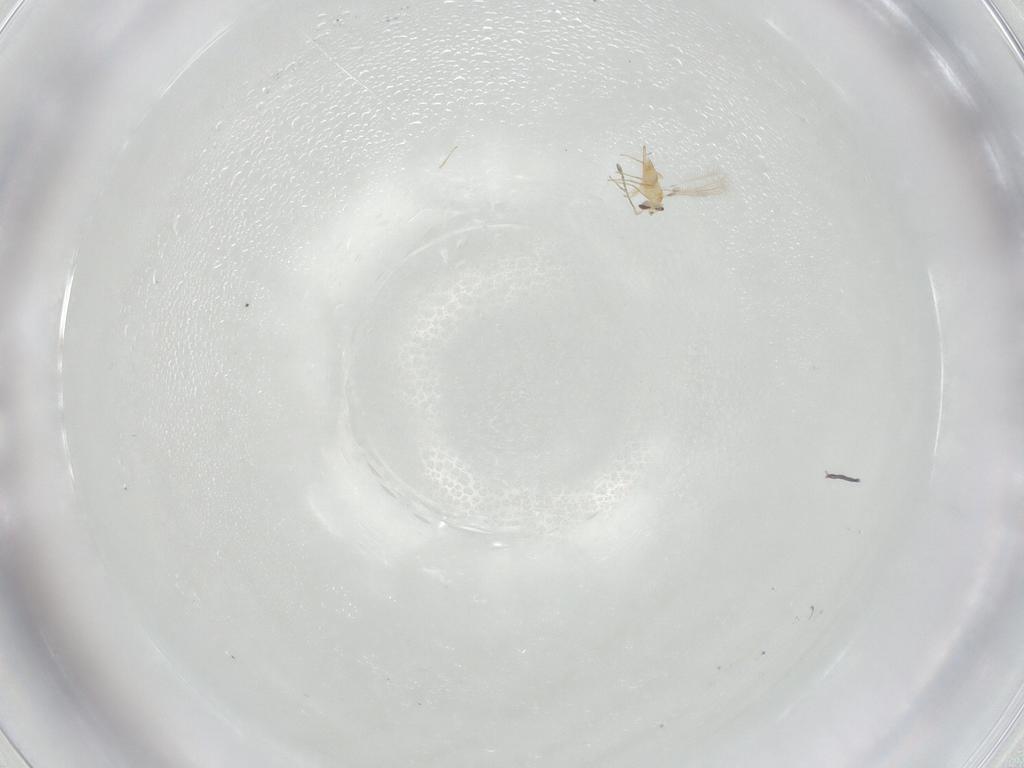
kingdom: Animalia
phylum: Arthropoda
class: Insecta
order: Hymenoptera
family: Mymaridae
